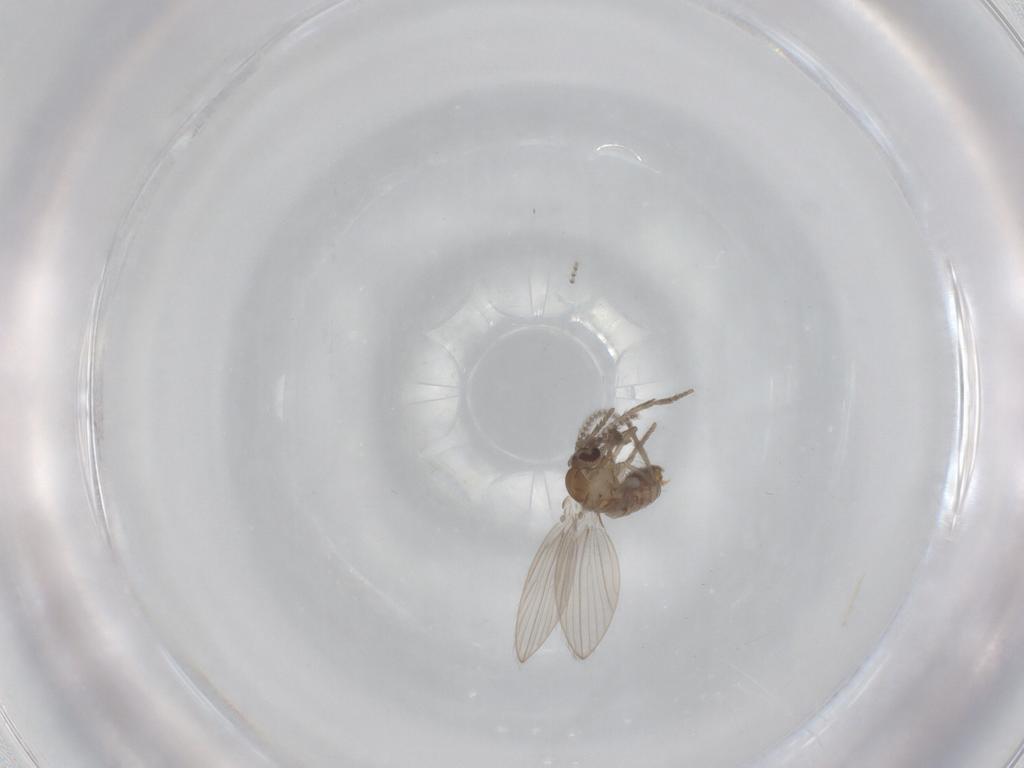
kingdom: Animalia
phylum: Arthropoda
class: Insecta
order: Diptera
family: Psychodidae
